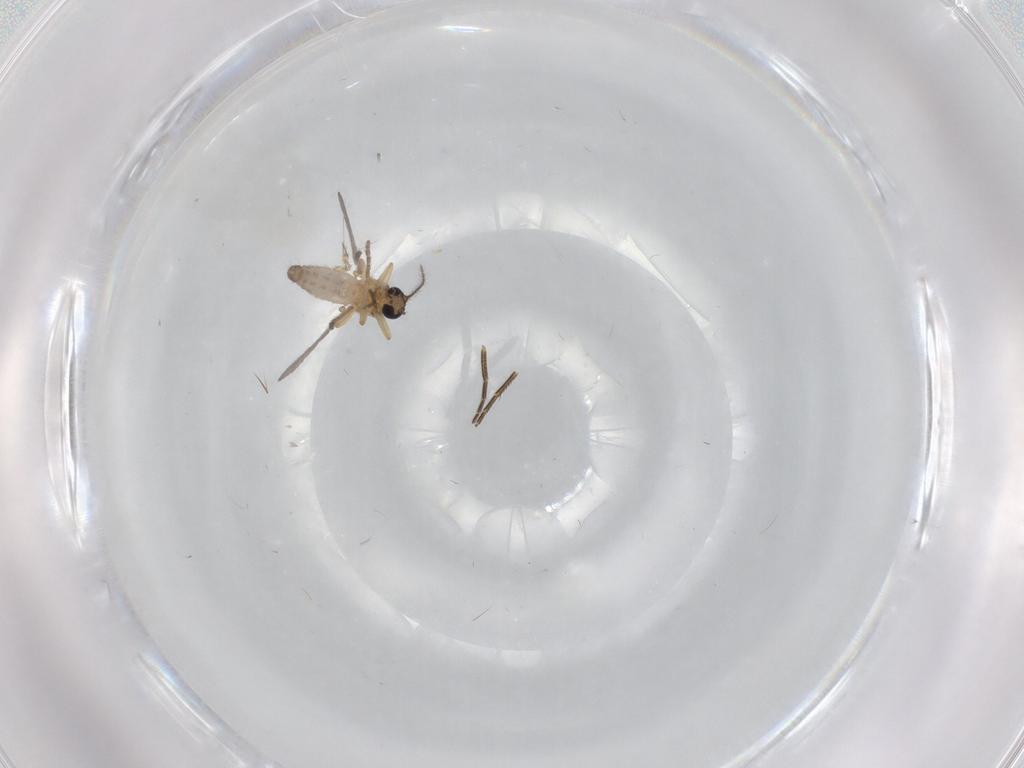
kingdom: Animalia
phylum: Arthropoda
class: Insecta
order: Diptera
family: Phoridae
